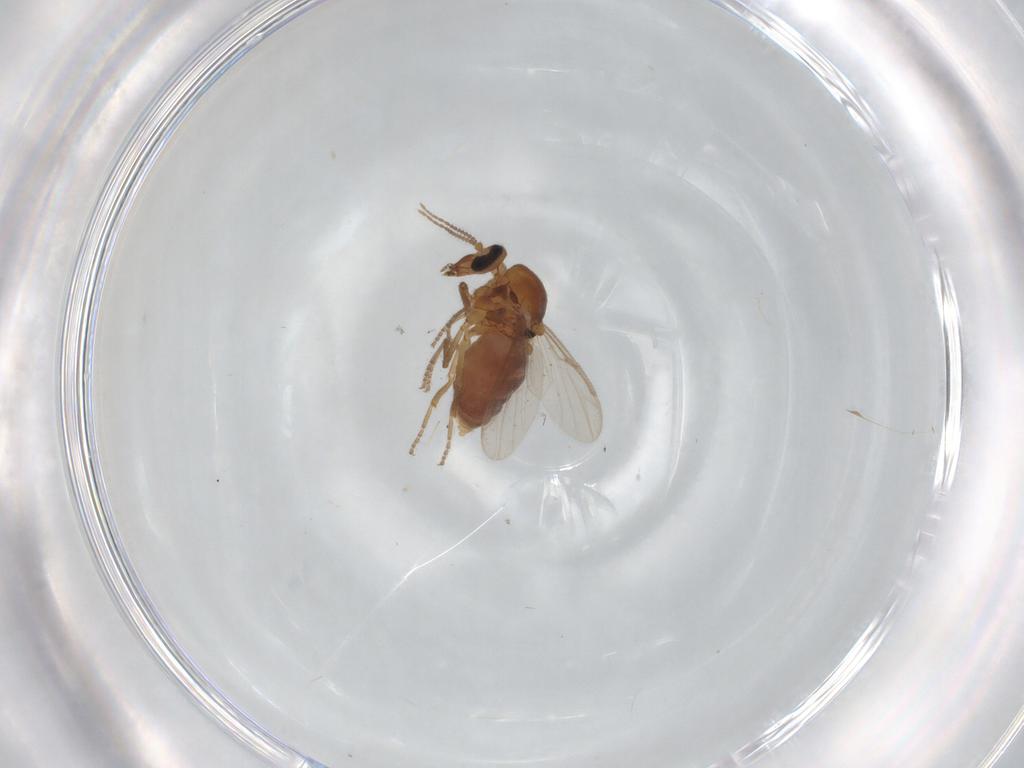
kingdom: Animalia
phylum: Arthropoda
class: Insecta
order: Diptera
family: Ceratopogonidae
